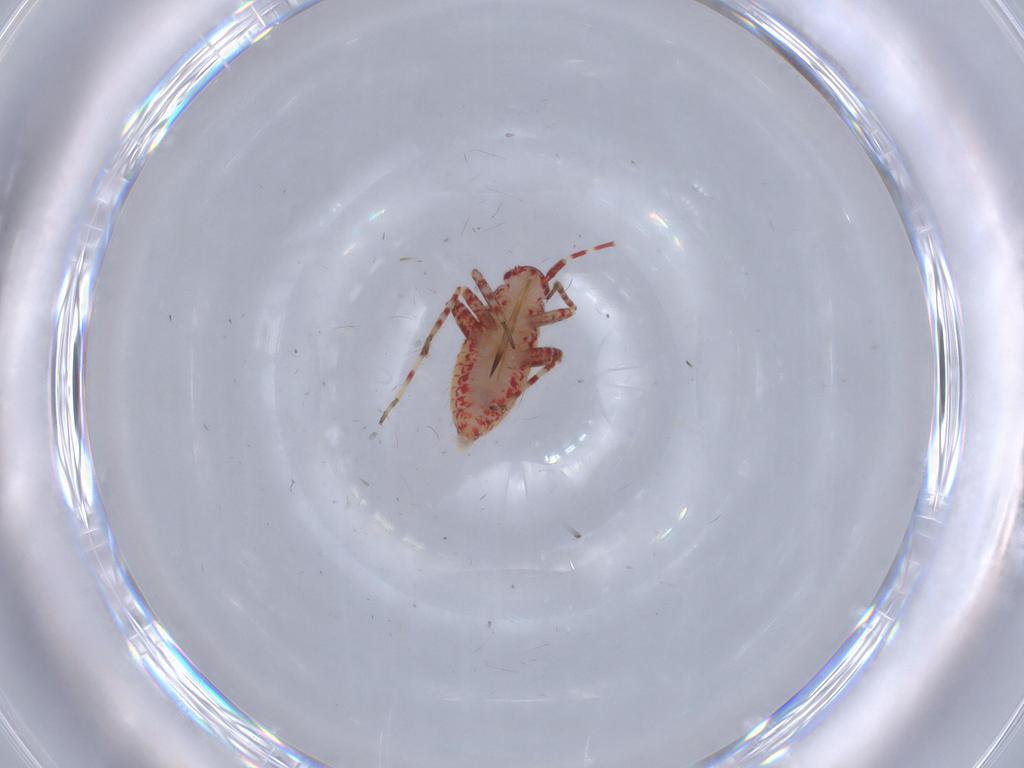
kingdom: Animalia
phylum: Arthropoda
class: Insecta
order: Hemiptera
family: Miridae
